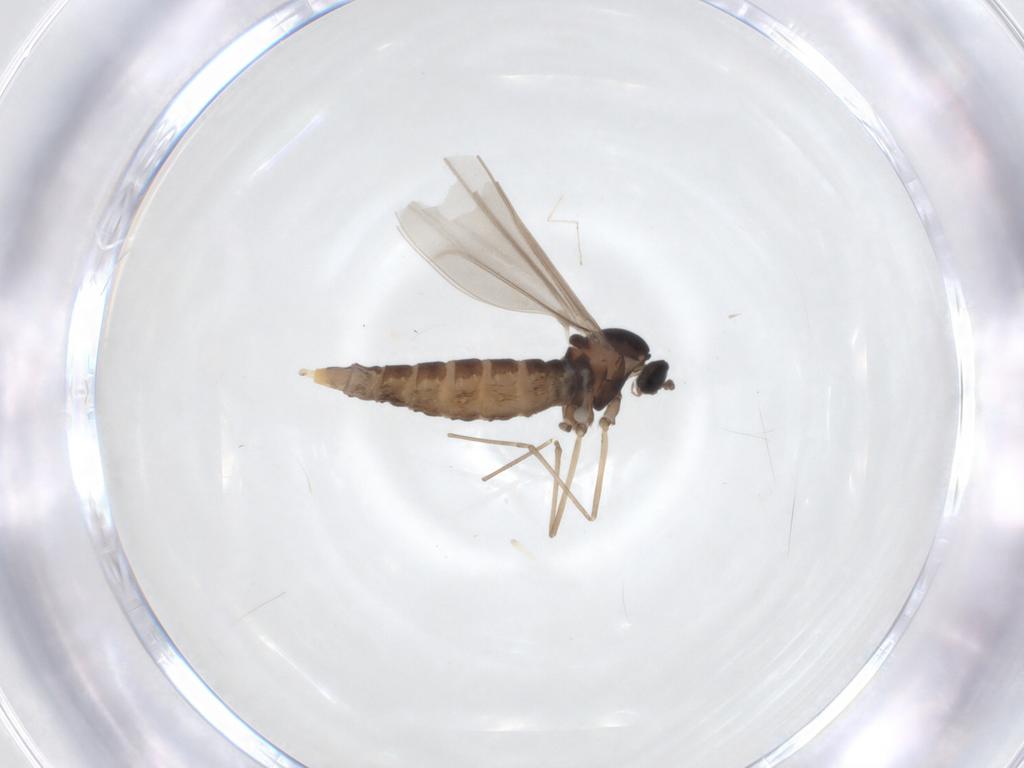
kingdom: Animalia
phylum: Arthropoda
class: Insecta
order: Diptera
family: Cecidomyiidae
